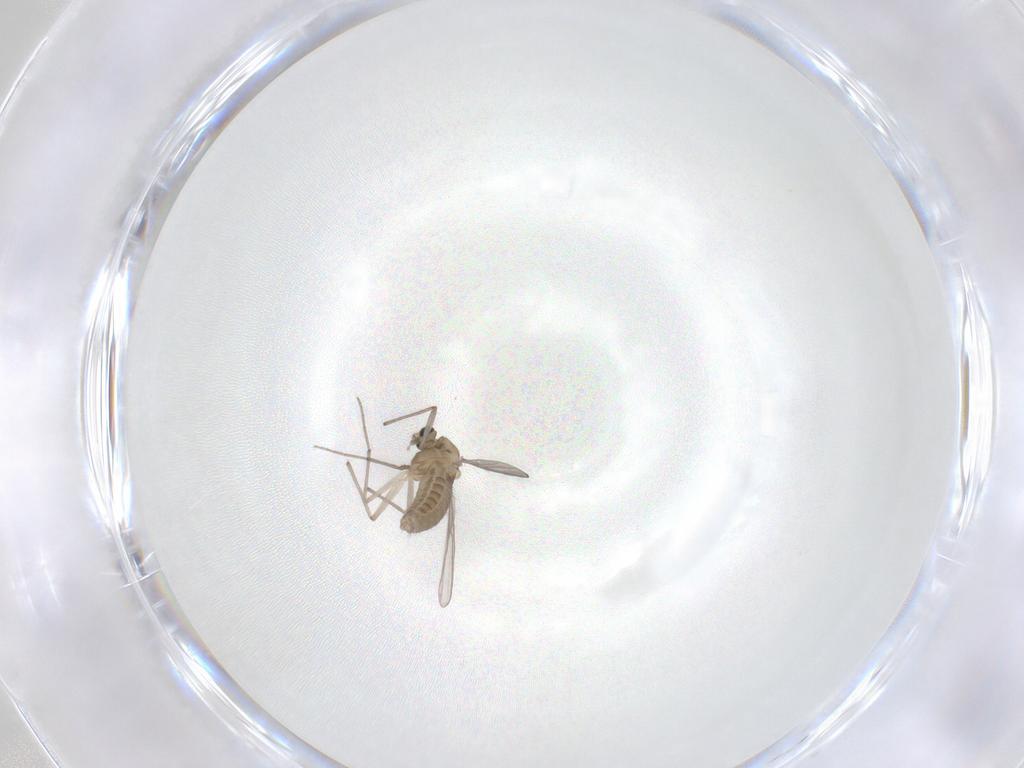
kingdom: Animalia
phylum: Arthropoda
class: Insecta
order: Diptera
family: Chironomidae
